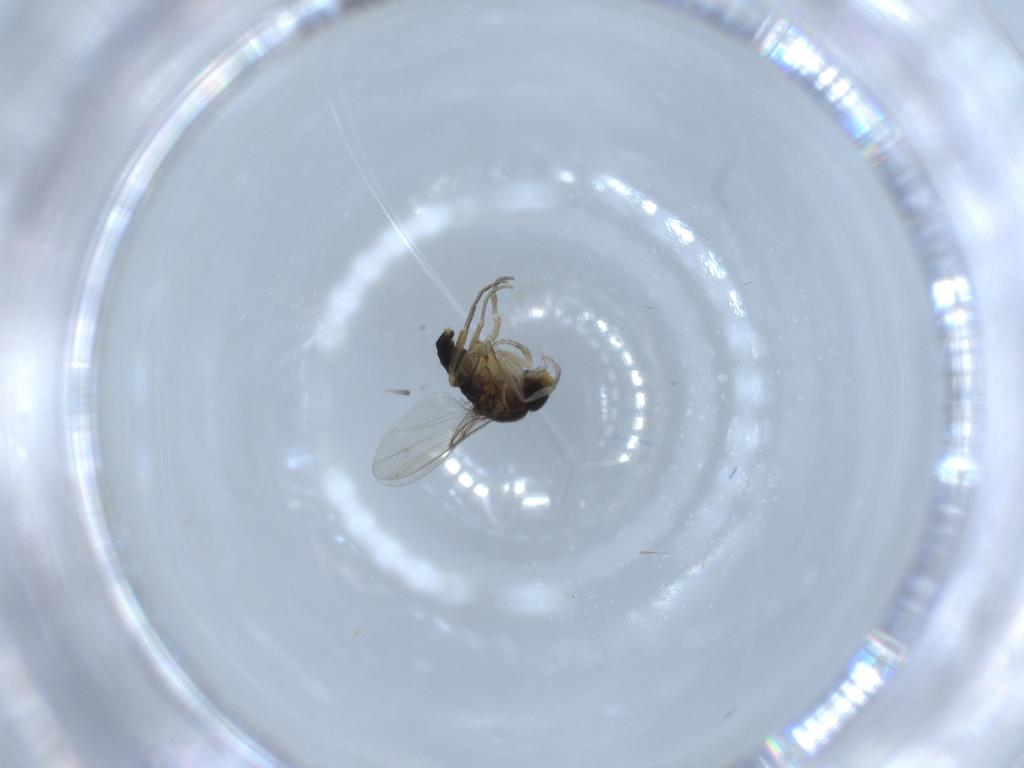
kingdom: Animalia
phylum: Arthropoda
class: Insecta
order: Diptera
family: Phoridae
